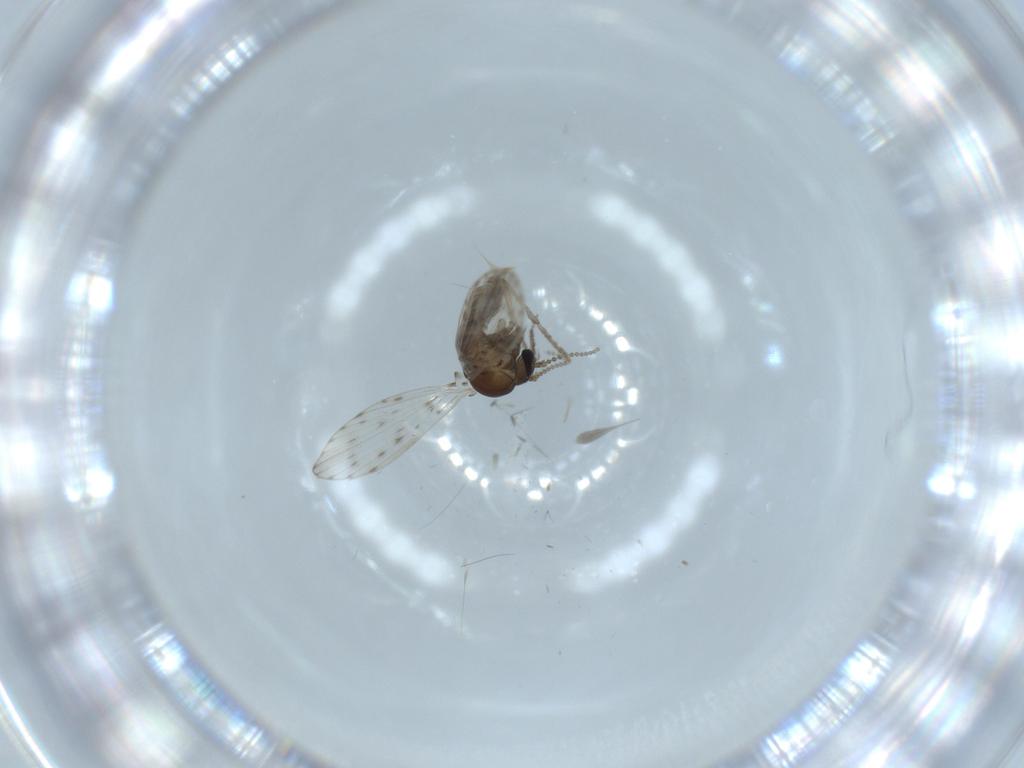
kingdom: Animalia
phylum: Arthropoda
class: Insecta
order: Diptera
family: Psychodidae
